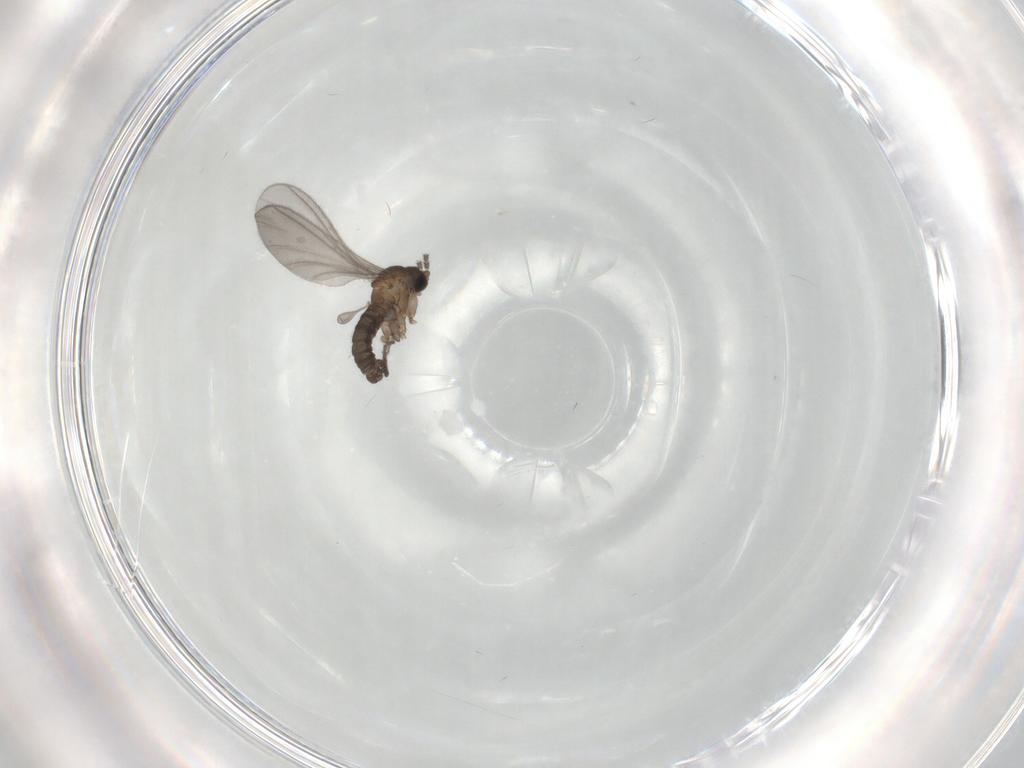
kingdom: Animalia
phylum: Arthropoda
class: Insecta
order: Diptera
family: Sciaridae
